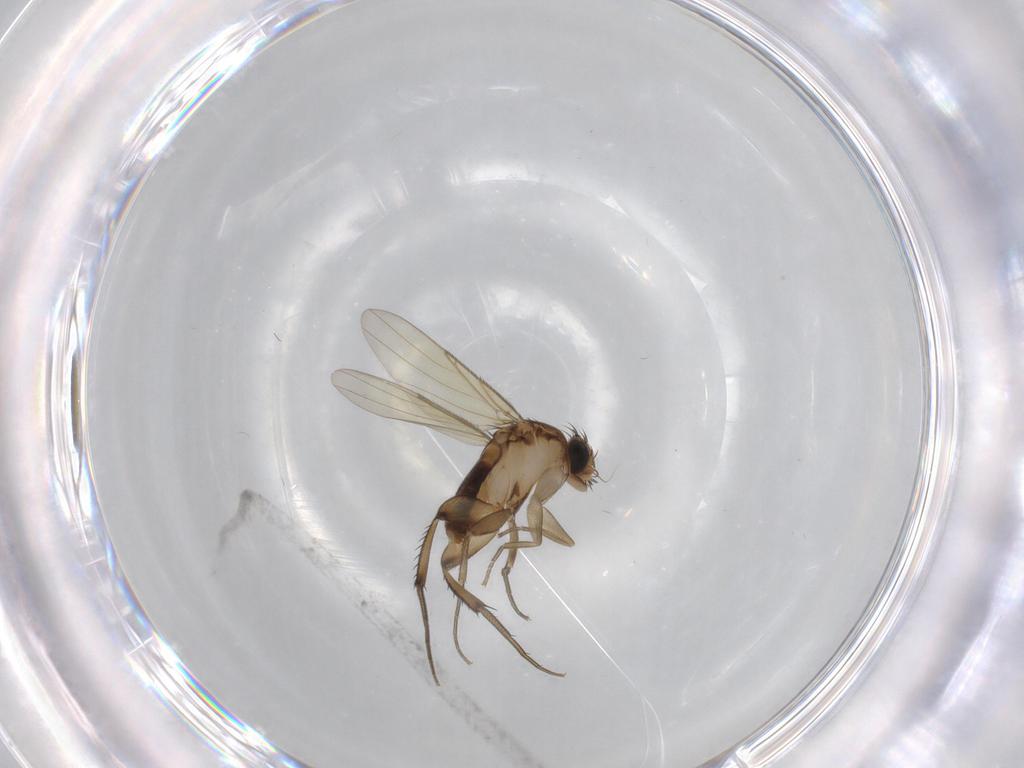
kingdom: Animalia
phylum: Arthropoda
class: Insecta
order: Diptera
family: Phoridae
